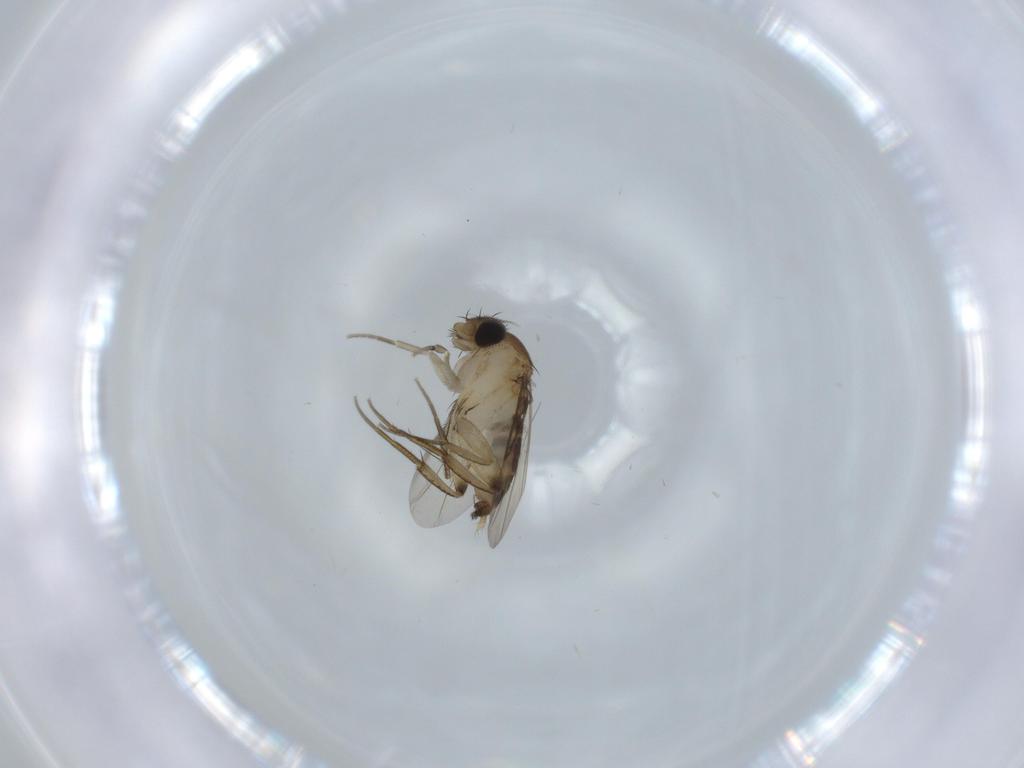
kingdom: Animalia
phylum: Arthropoda
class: Insecta
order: Diptera
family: Phoridae
